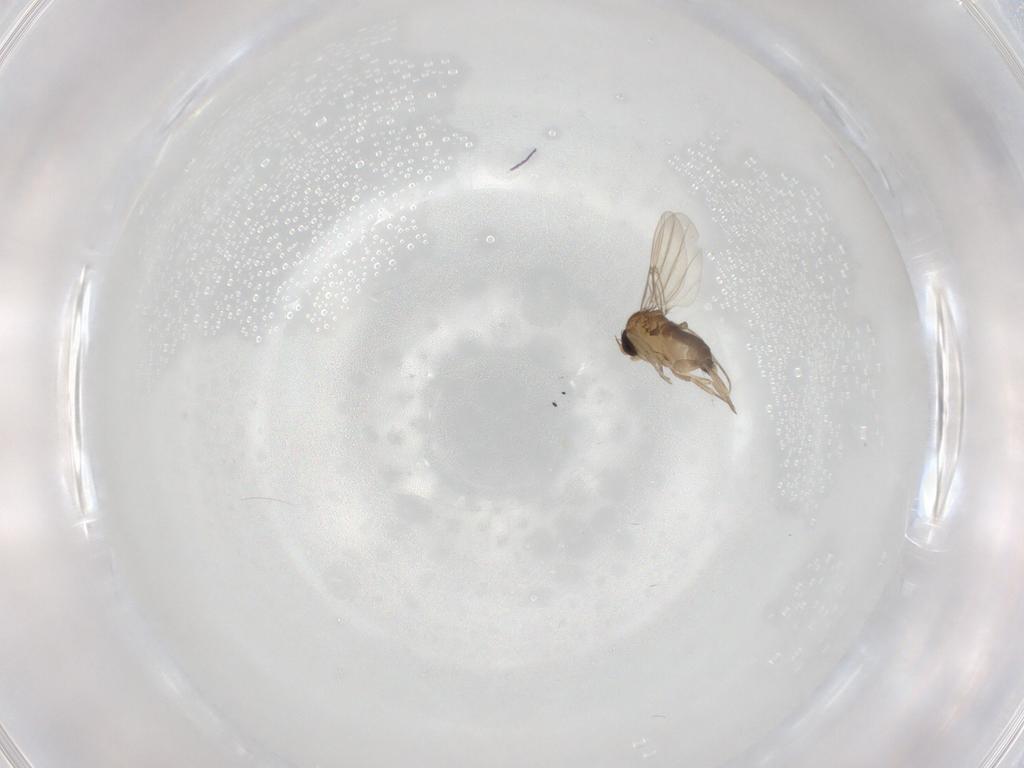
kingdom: Animalia
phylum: Arthropoda
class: Insecta
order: Diptera
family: Phoridae
